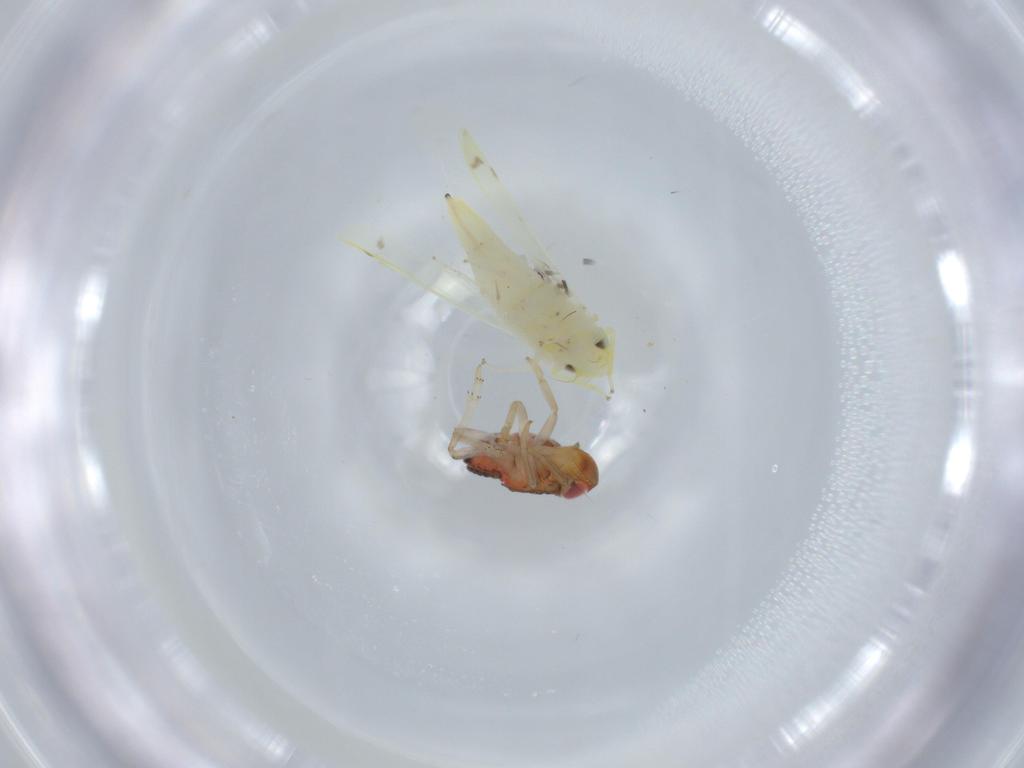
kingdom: Animalia
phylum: Arthropoda
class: Insecta
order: Hemiptera
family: Cicadellidae
